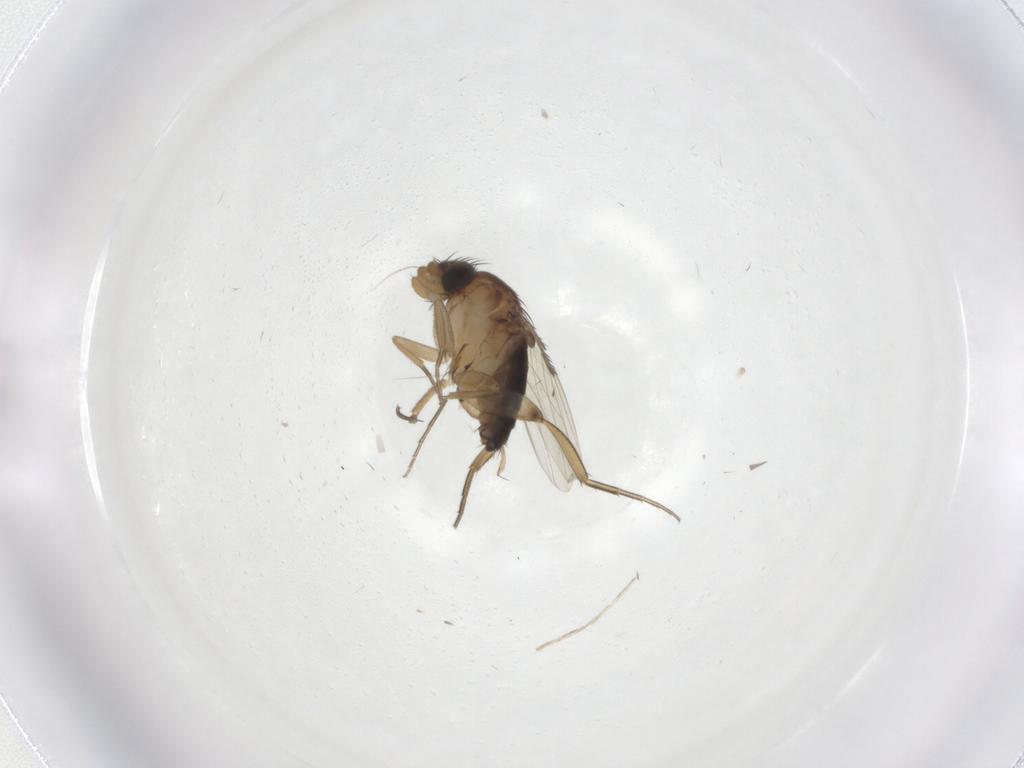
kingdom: Animalia
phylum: Arthropoda
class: Insecta
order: Diptera
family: Phoridae
